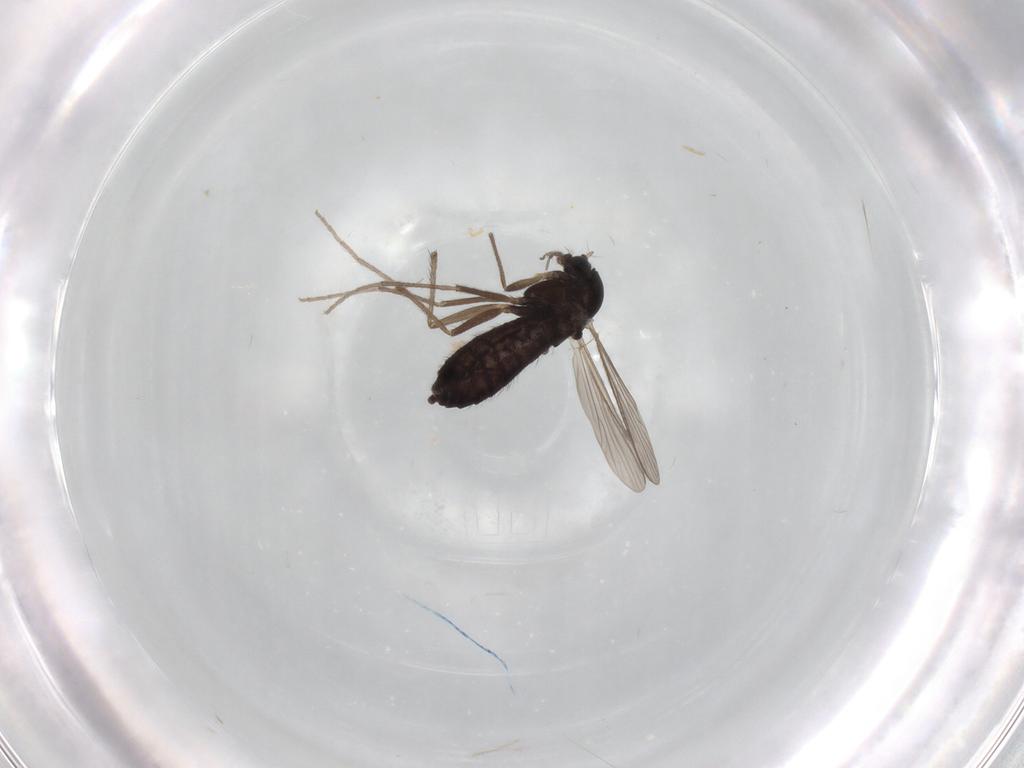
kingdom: Animalia
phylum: Arthropoda
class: Insecta
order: Diptera
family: Chironomidae
